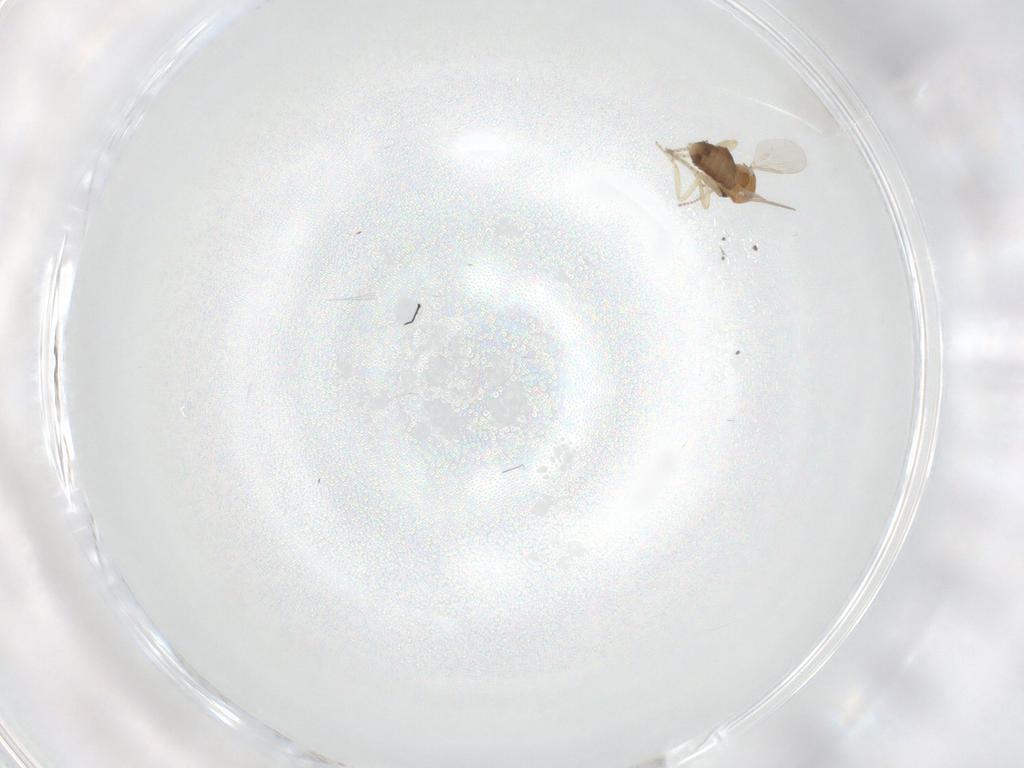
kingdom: Animalia
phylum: Arthropoda
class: Insecta
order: Diptera
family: Ceratopogonidae
